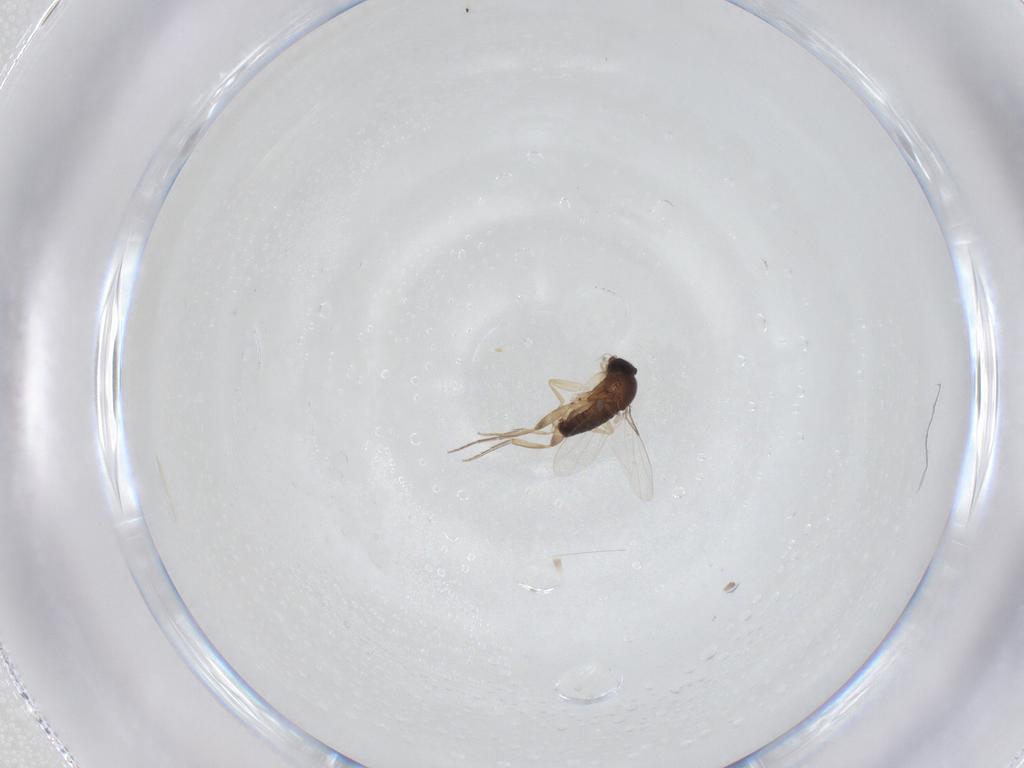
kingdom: Animalia
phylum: Arthropoda
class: Insecta
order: Diptera
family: Phoridae
